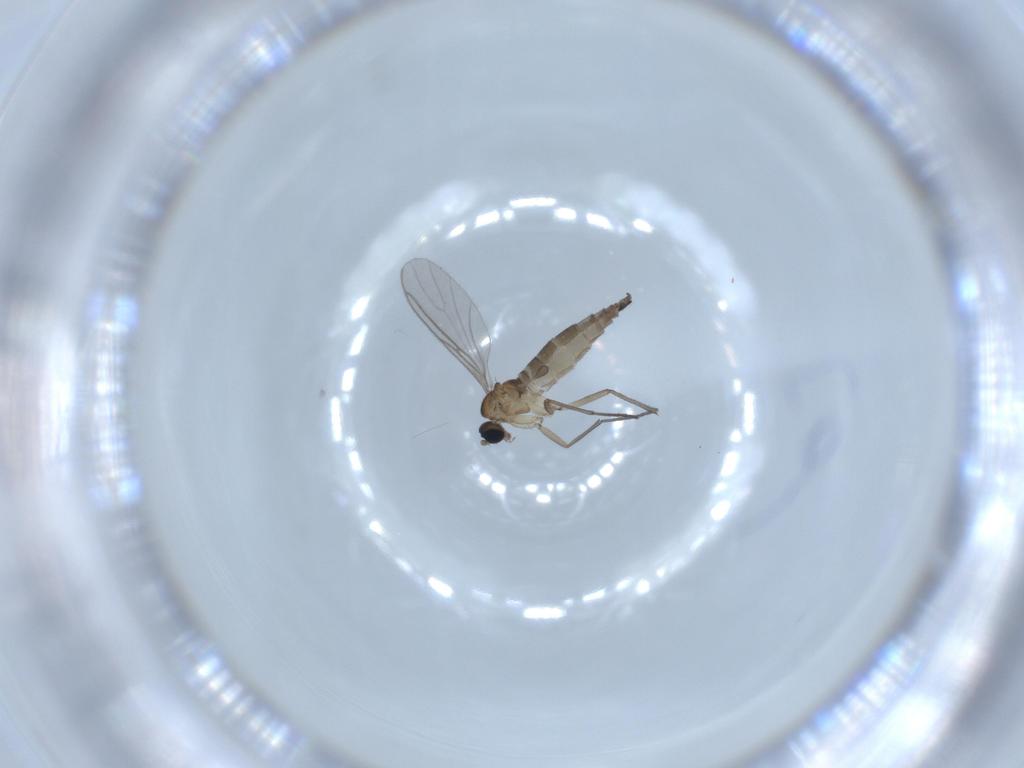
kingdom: Animalia
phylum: Arthropoda
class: Insecta
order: Diptera
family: Sciaridae
